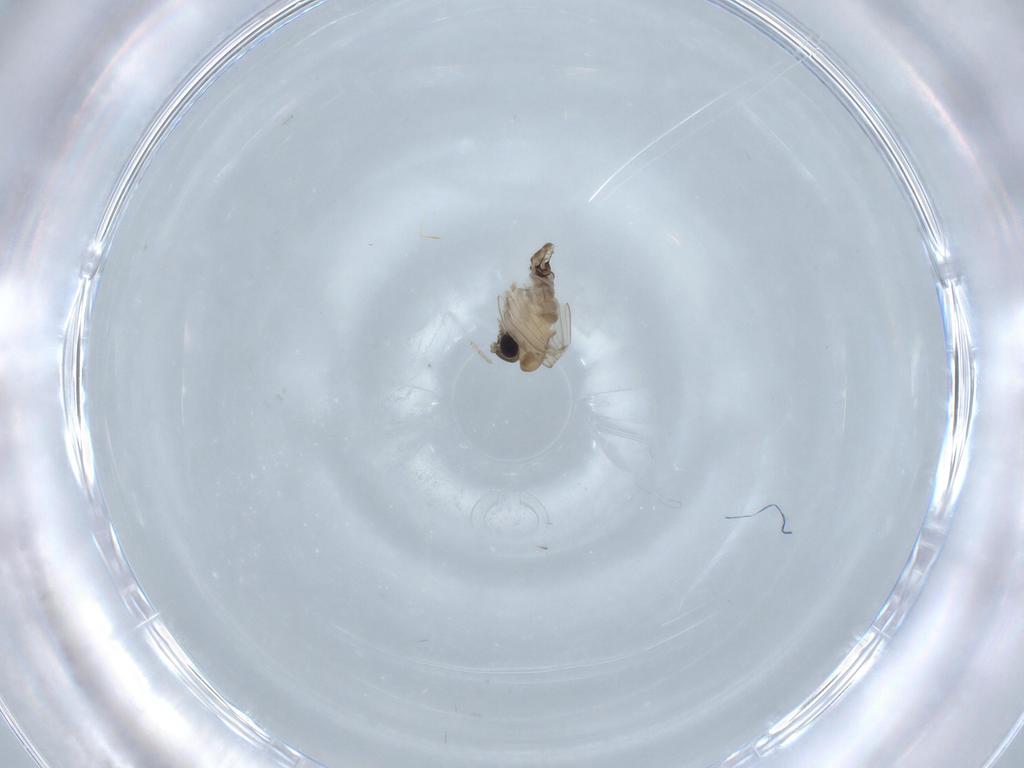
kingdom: Animalia
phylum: Arthropoda
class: Insecta
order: Diptera
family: Psychodidae
